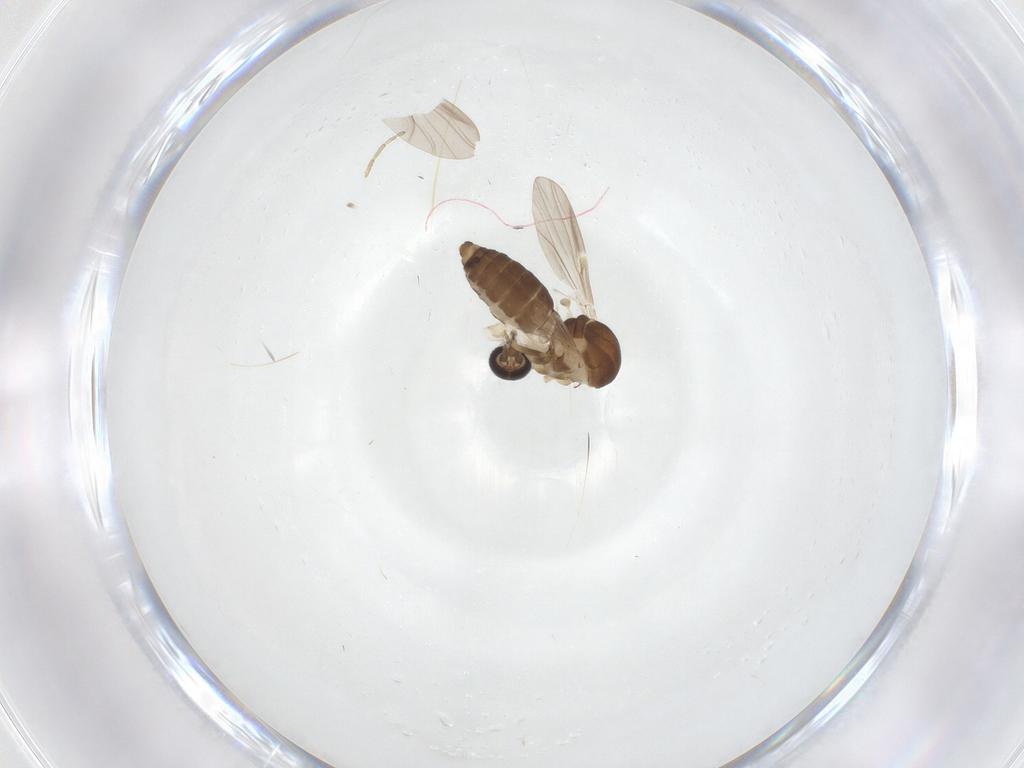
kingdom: Animalia
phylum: Arthropoda
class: Insecta
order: Diptera
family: Ceratopogonidae
